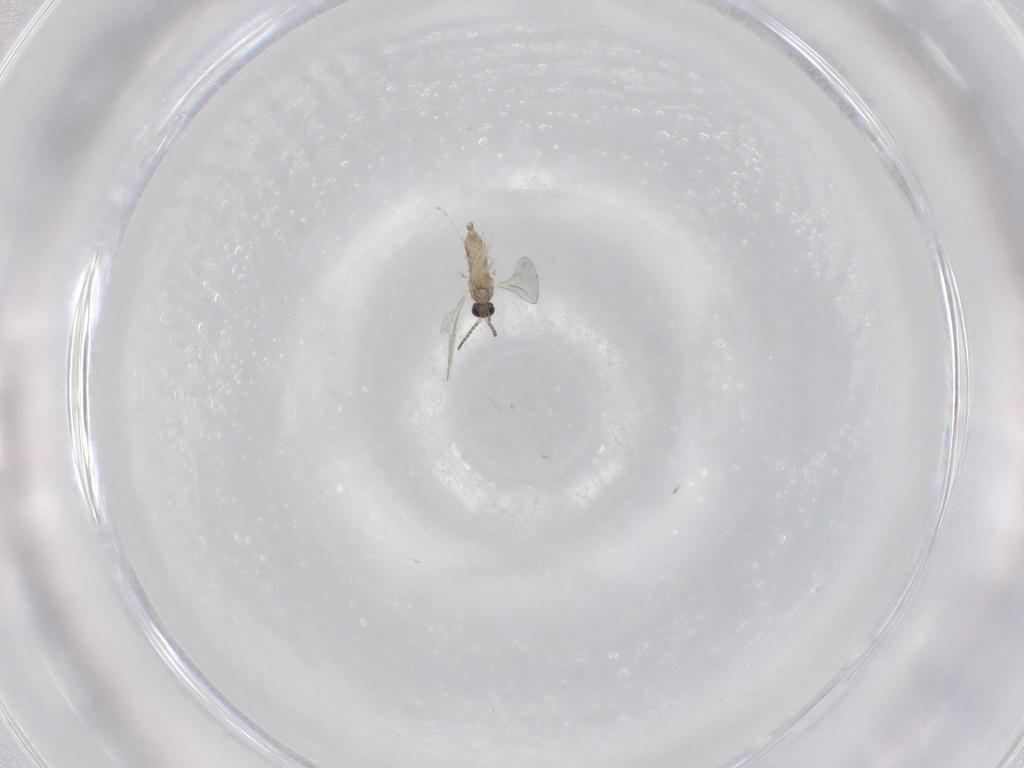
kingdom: Animalia
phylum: Arthropoda
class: Insecta
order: Diptera
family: Cecidomyiidae
